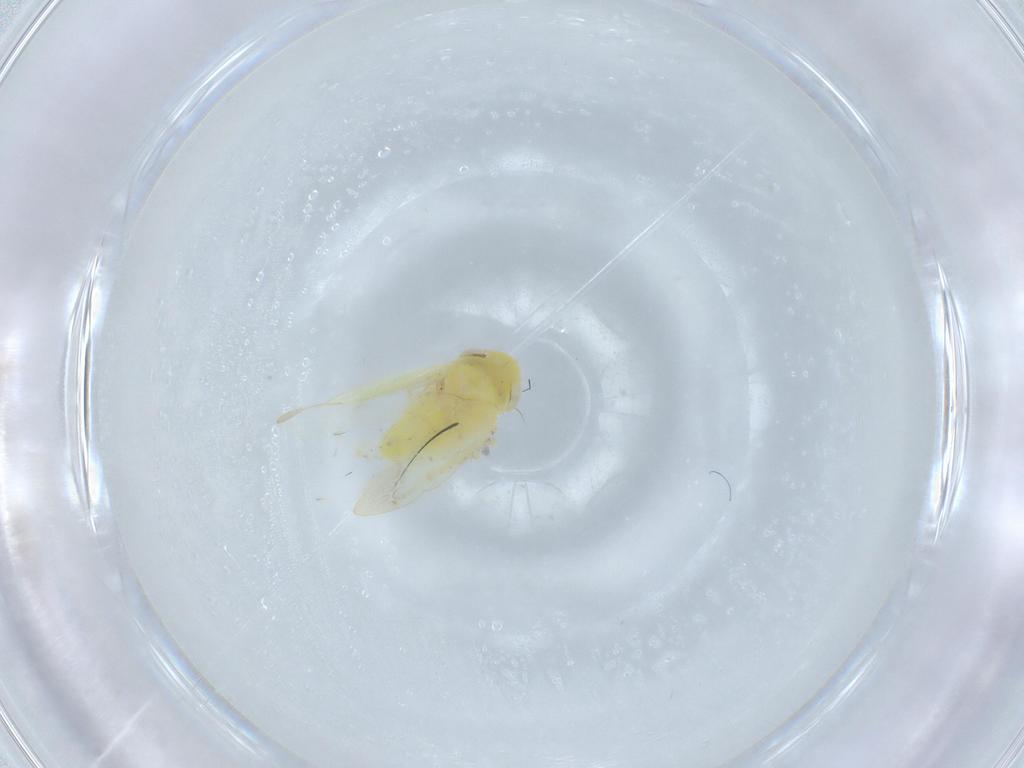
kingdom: Animalia
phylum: Arthropoda
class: Insecta
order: Hemiptera
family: Cicadellidae
